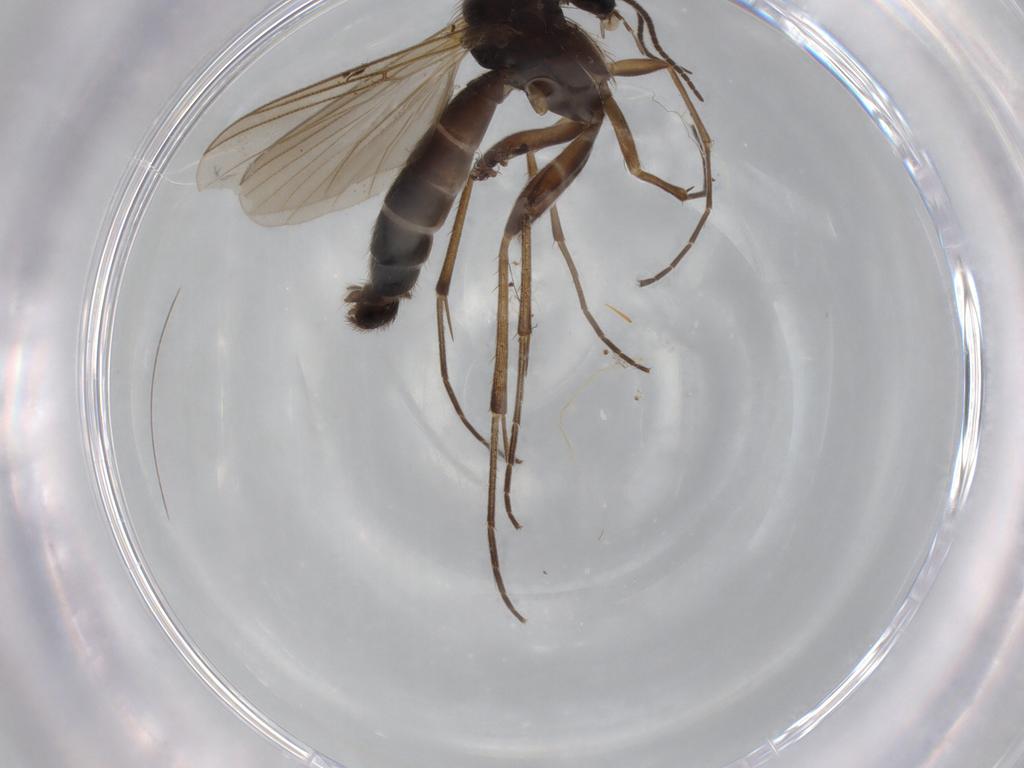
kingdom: Animalia
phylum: Arthropoda
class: Insecta
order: Diptera
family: Mycetophilidae
